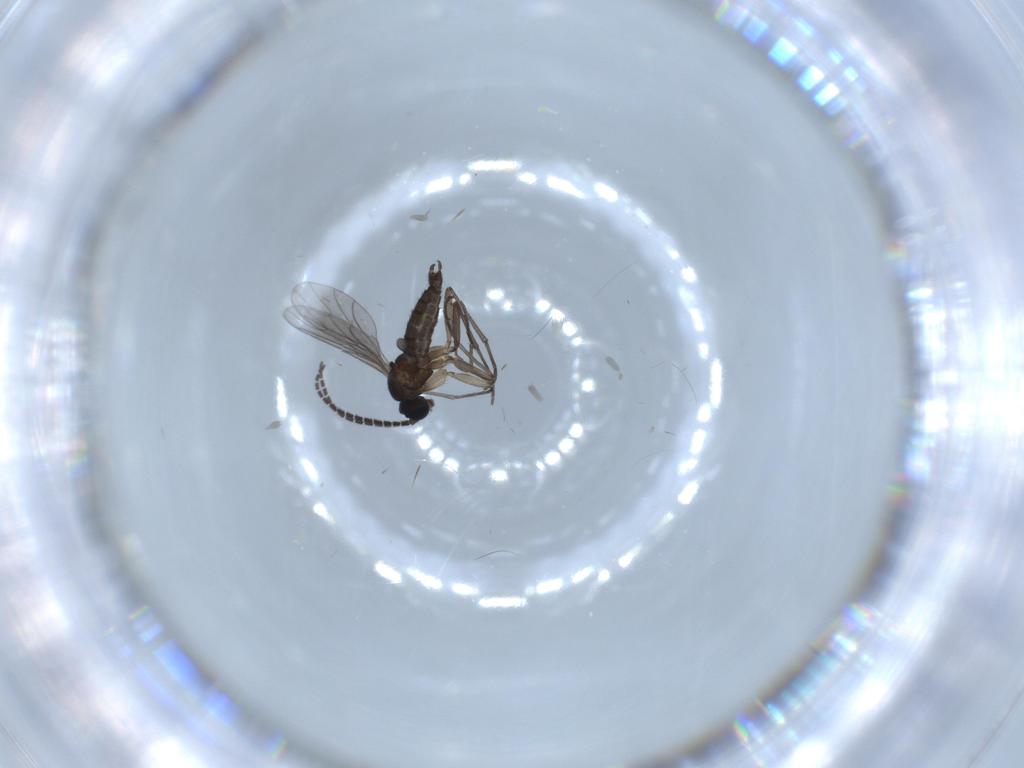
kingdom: Animalia
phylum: Arthropoda
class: Insecta
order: Diptera
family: Sciaridae
